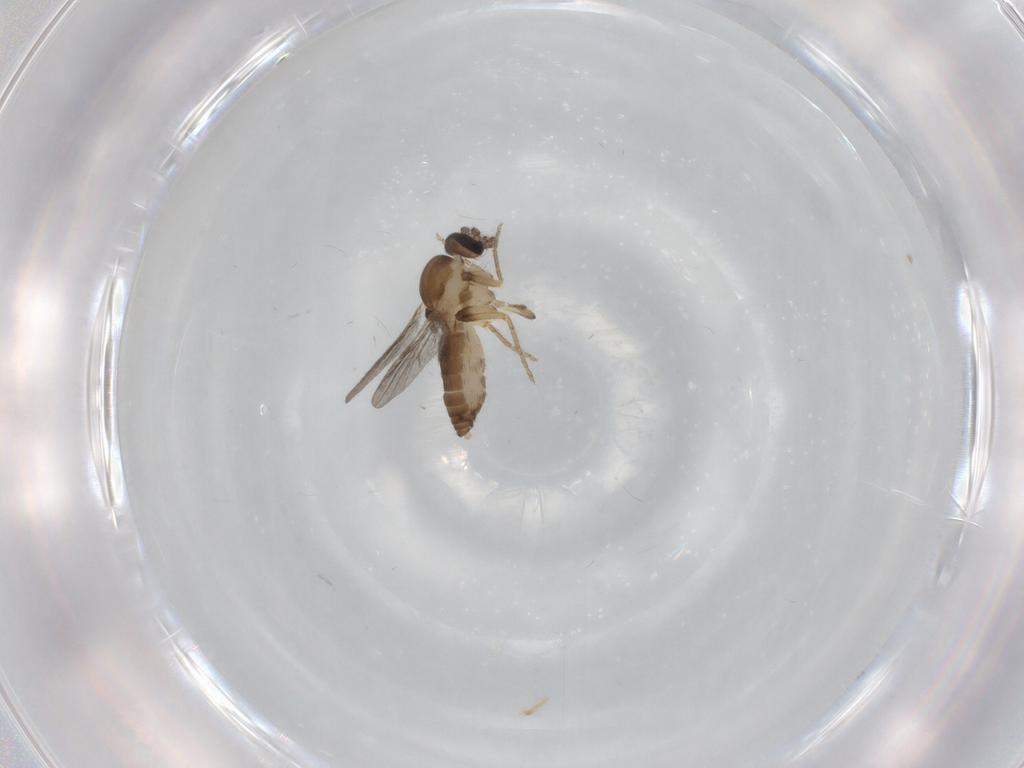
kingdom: Animalia
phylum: Arthropoda
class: Insecta
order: Diptera
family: Ceratopogonidae
